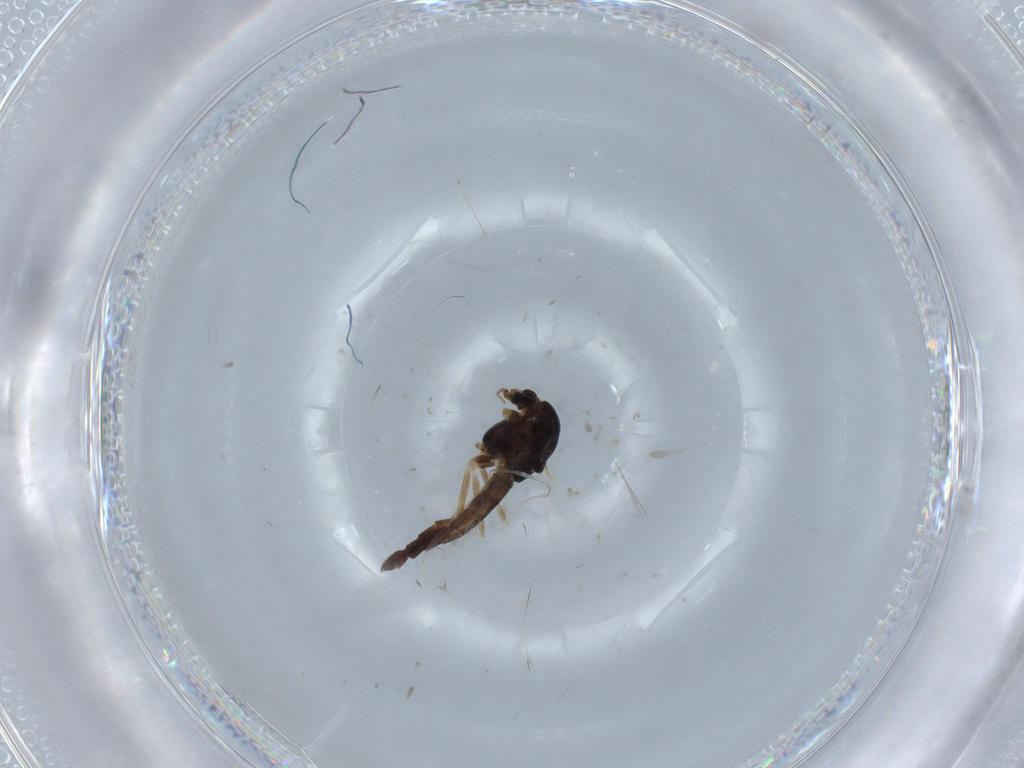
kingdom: Animalia
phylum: Arthropoda
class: Insecta
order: Diptera
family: Chironomidae
